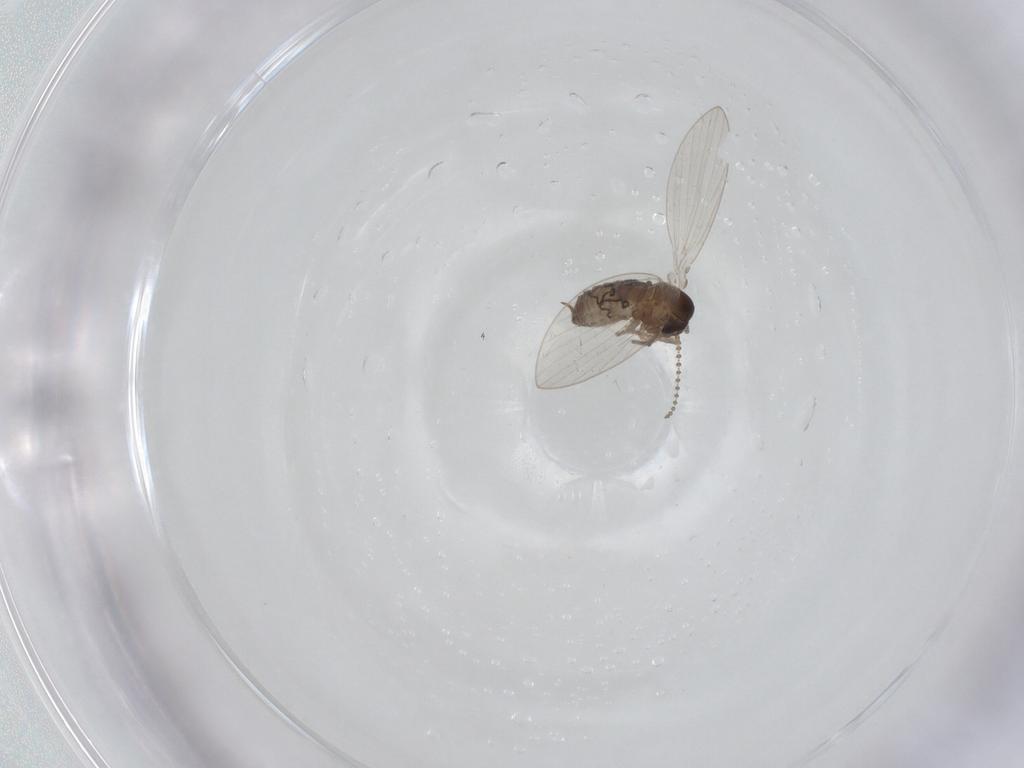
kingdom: Animalia
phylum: Arthropoda
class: Insecta
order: Diptera
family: Psychodidae
